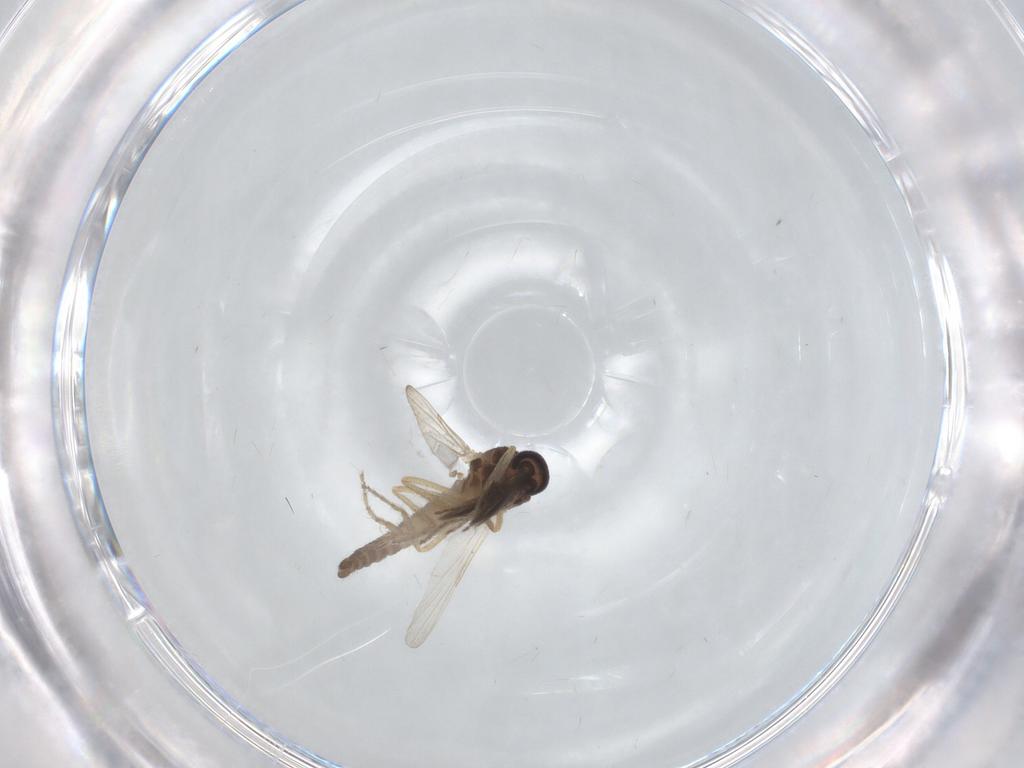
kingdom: Animalia
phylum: Arthropoda
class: Insecta
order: Diptera
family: Ceratopogonidae
